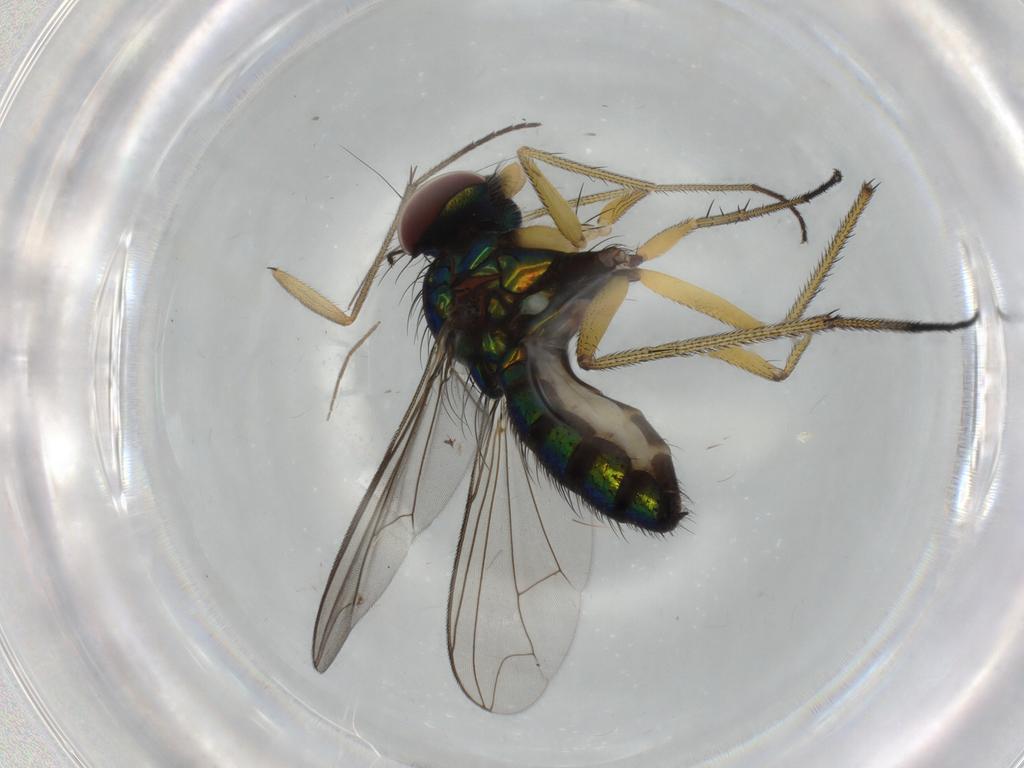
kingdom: Animalia
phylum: Arthropoda
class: Insecta
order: Diptera
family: Dolichopodidae
